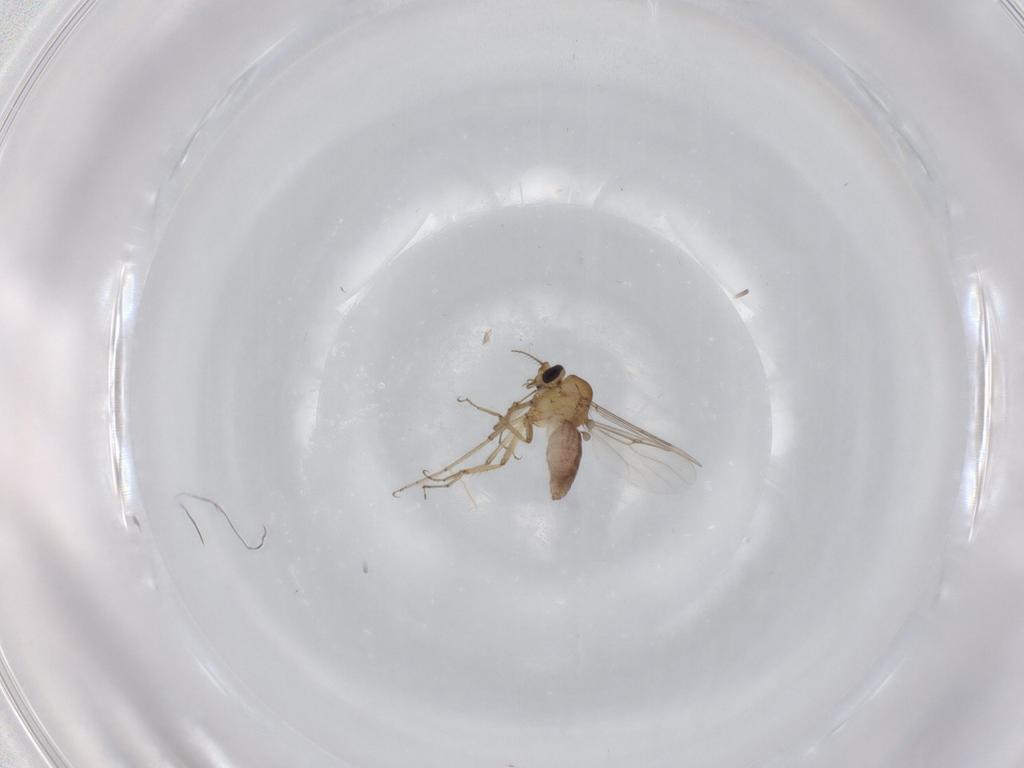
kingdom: Animalia
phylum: Arthropoda
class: Insecta
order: Diptera
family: Ceratopogonidae
